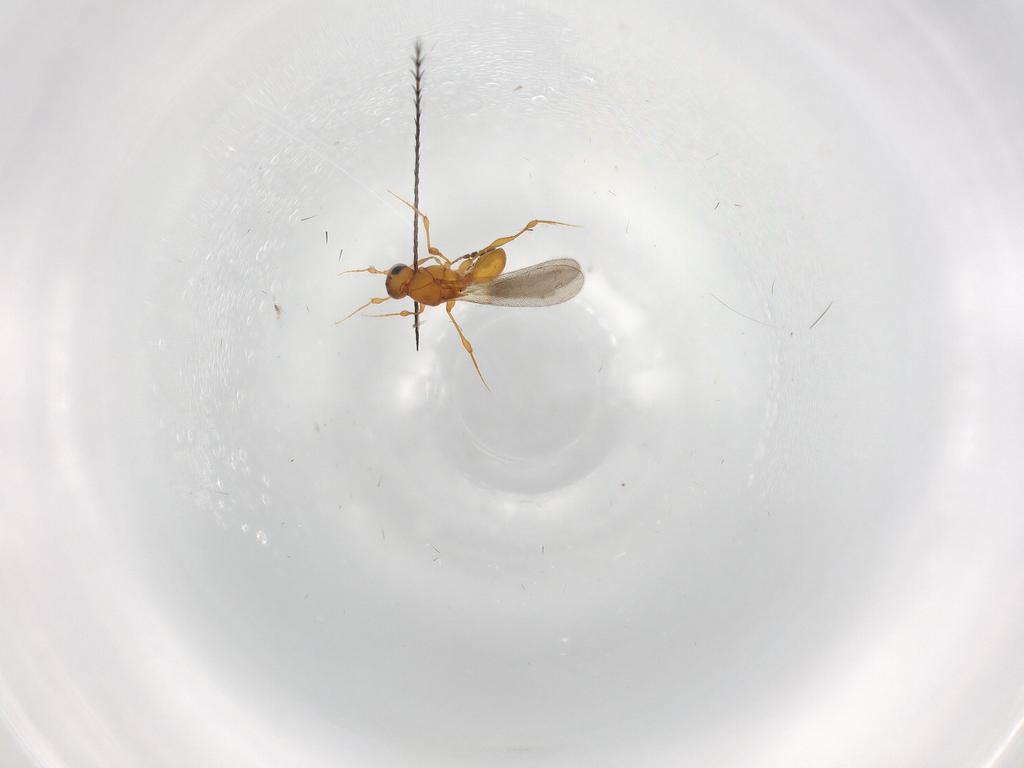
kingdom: Animalia
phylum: Arthropoda
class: Insecta
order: Hymenoptera
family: Platygastridae
